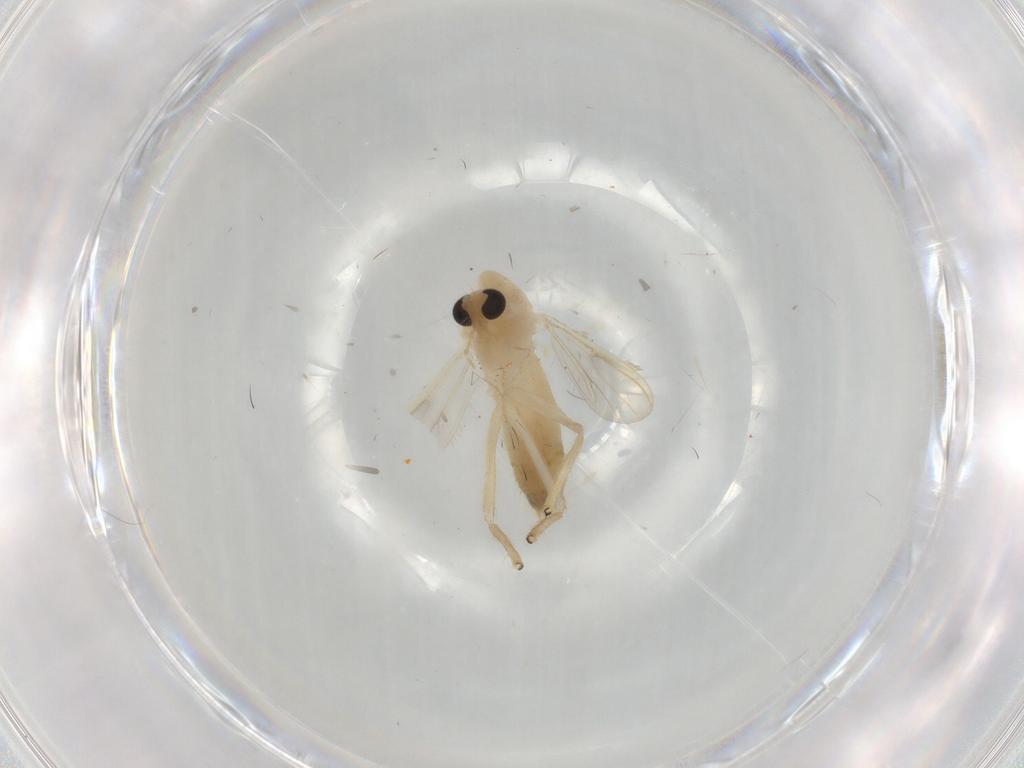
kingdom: Animalia
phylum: Arthropoda
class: Insecta
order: Diptera
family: Chironomidae
